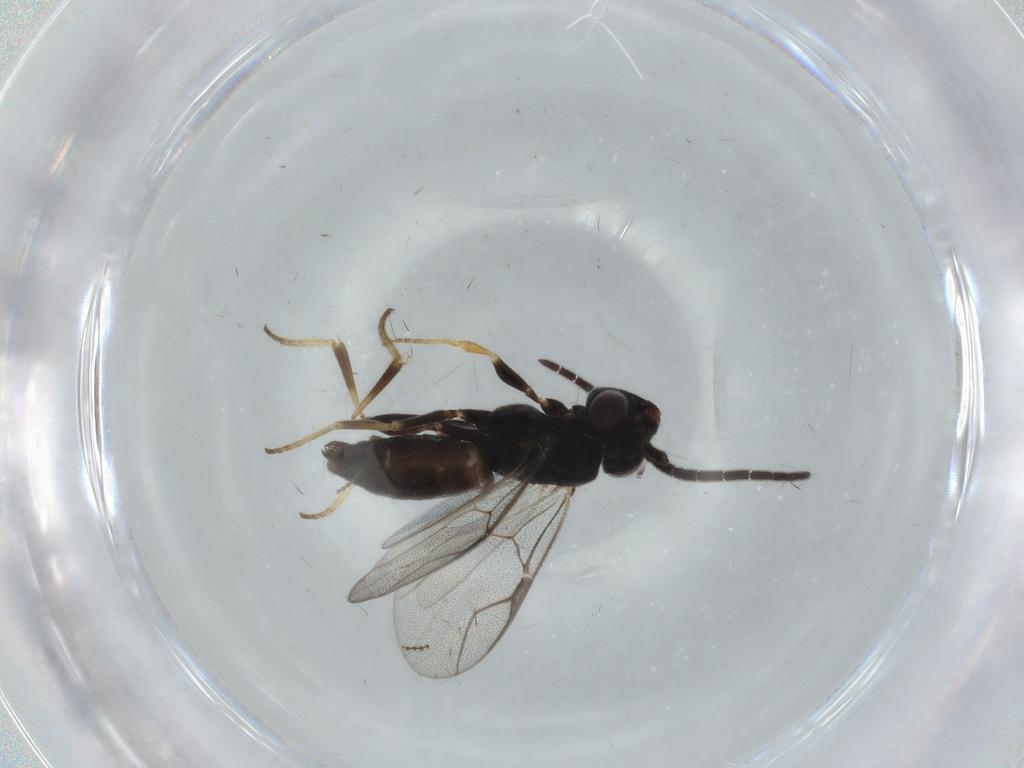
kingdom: Animalia
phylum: Arthropoda
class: Insecta
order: Hymenoptera
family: Dryinidae
